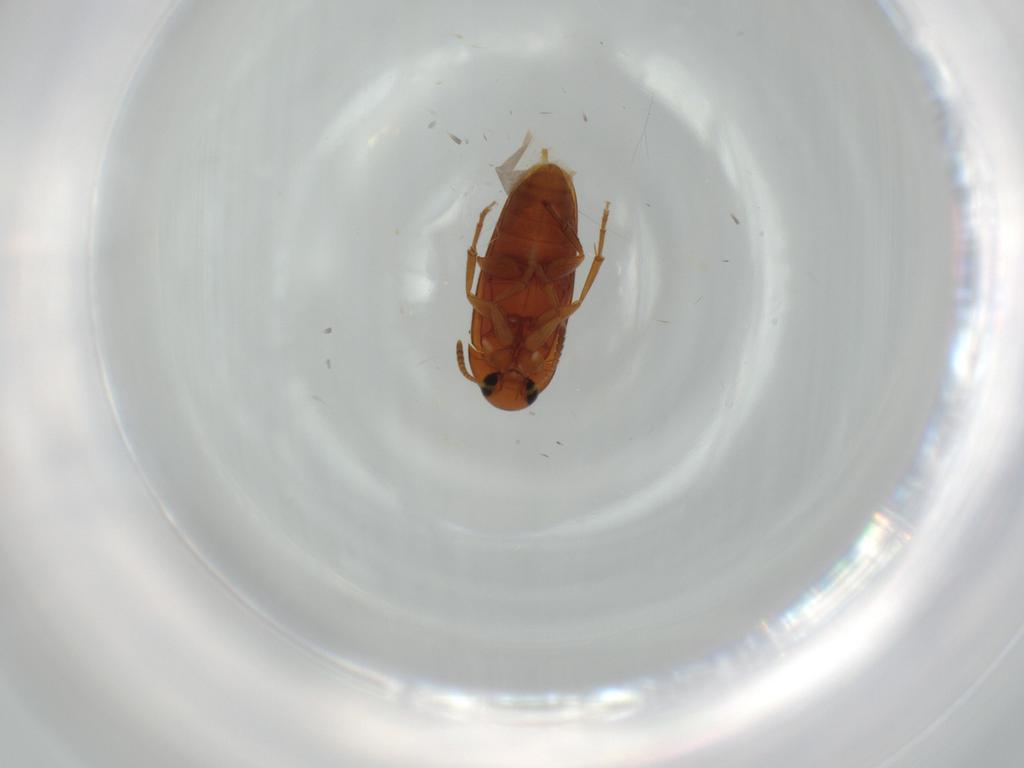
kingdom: Animalia
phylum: Arthropoda
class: Insecta
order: Coleoptera
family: Scraptiidae
